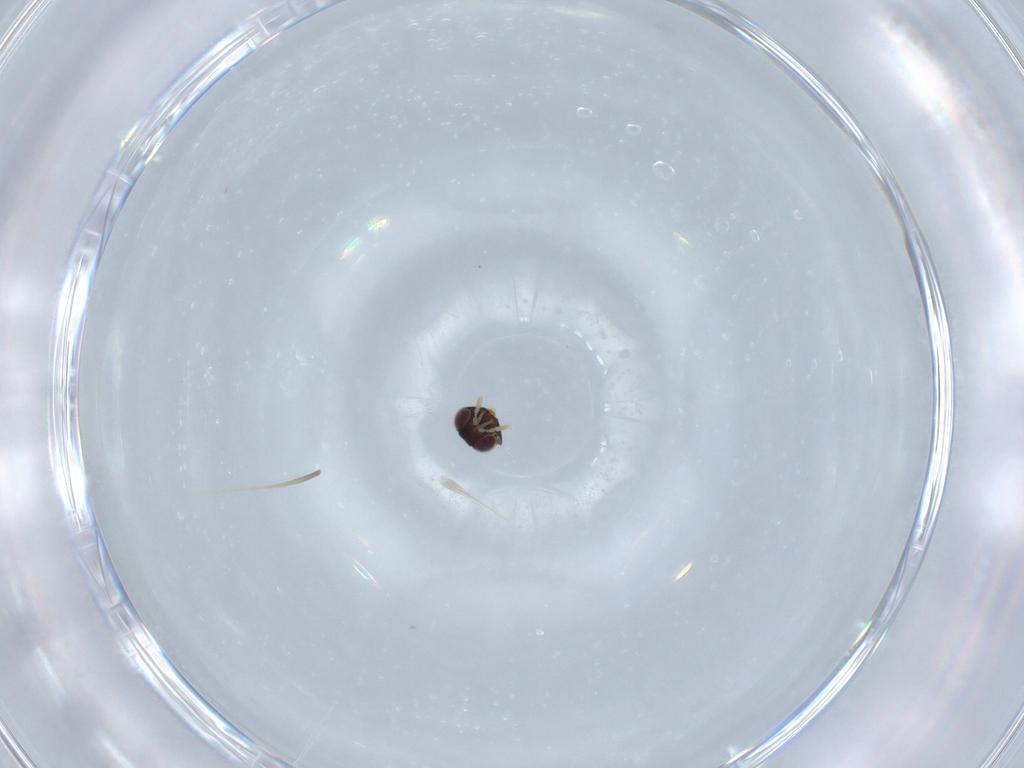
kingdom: Animalia
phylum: Arthropoda
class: Insecta
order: Hymenoptera
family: Aphelinidae
